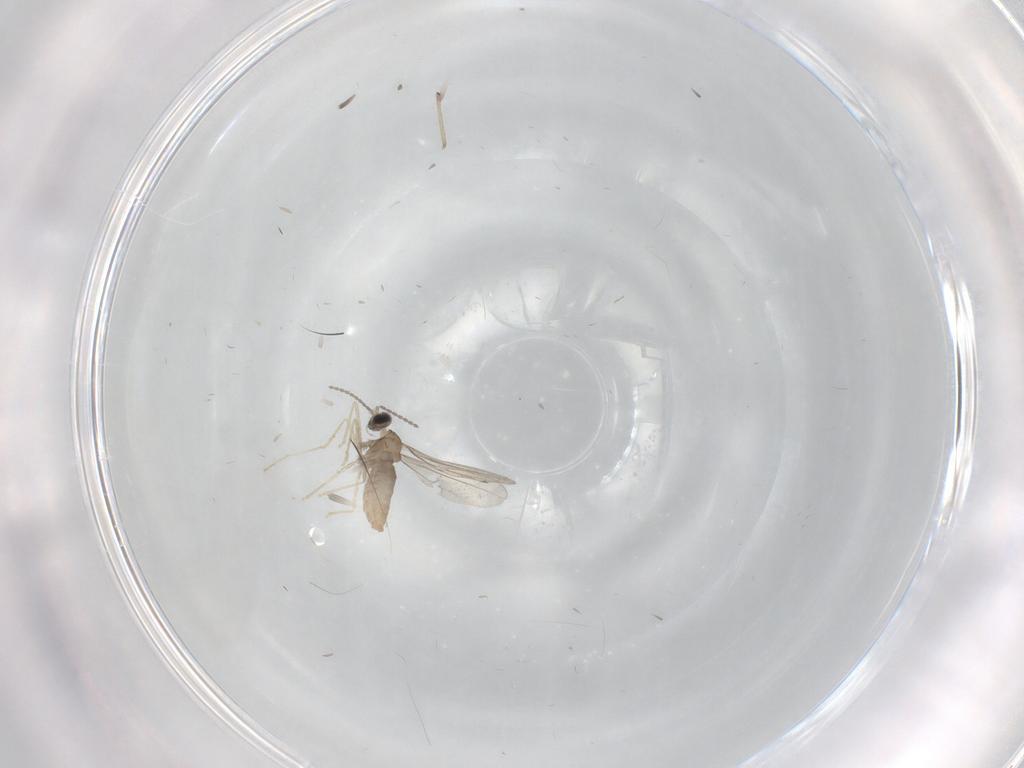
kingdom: Animalia
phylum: Arthropoda
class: Insecta
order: Diptera
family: Cecidomyiidae
